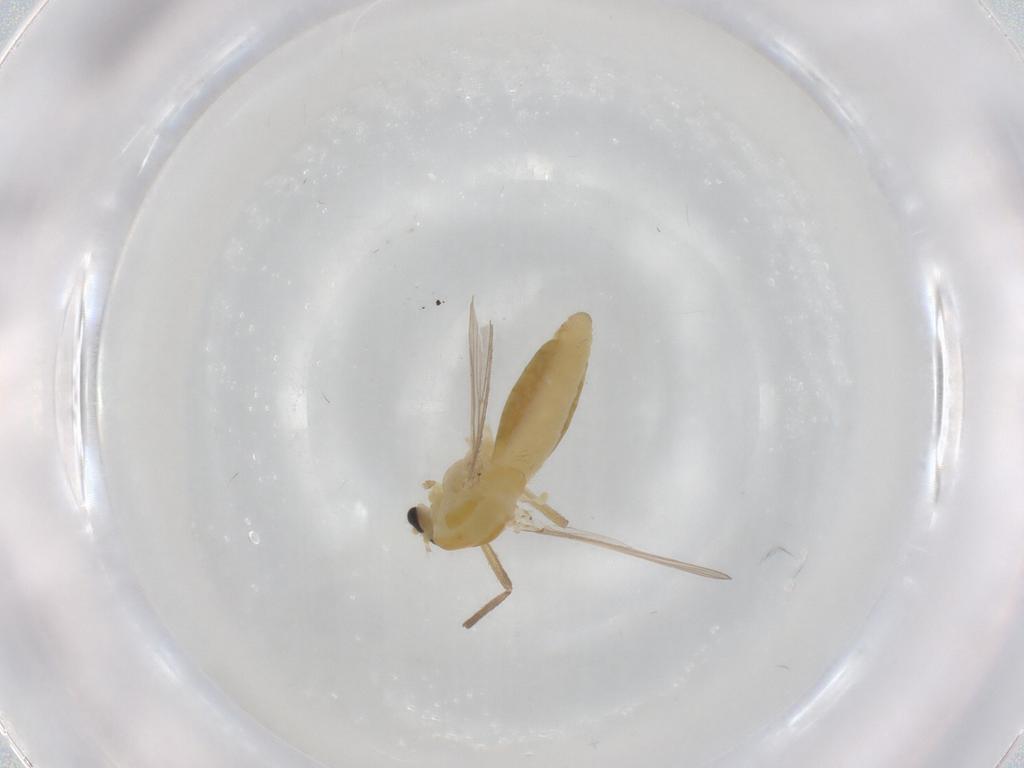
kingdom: Animalia
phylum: Arthropoda
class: Insecta
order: Diptera
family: Chironomidae
